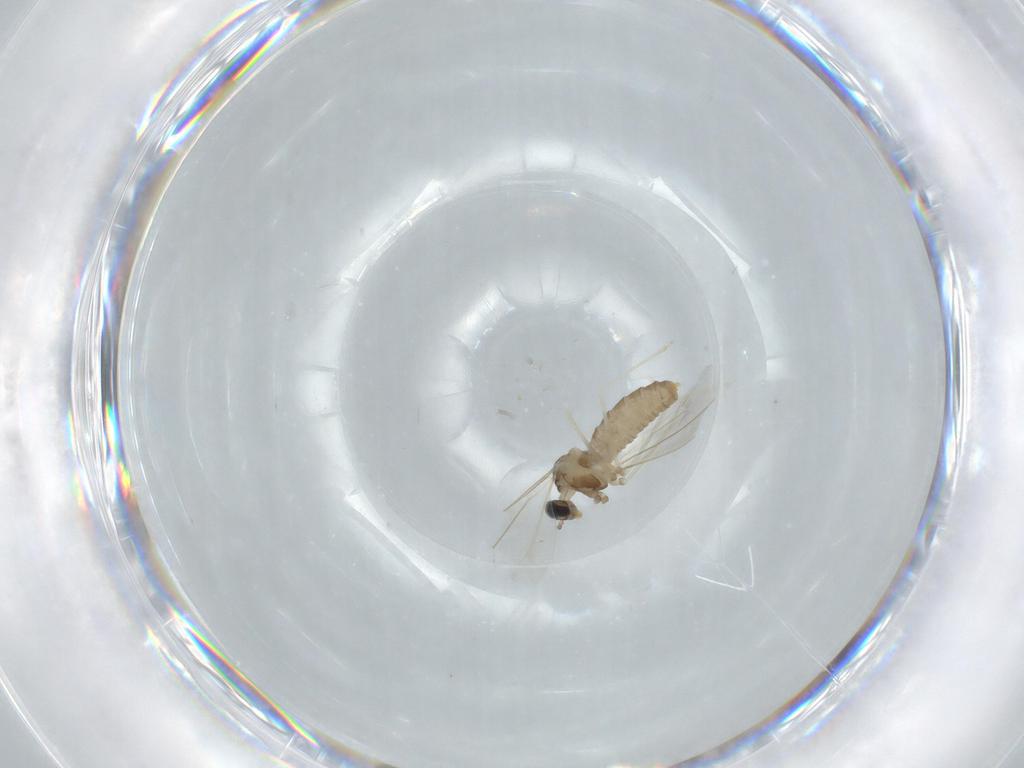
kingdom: Animalia
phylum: Arthropoda
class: Insecta
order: Diptera
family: Cecidomyiidae
